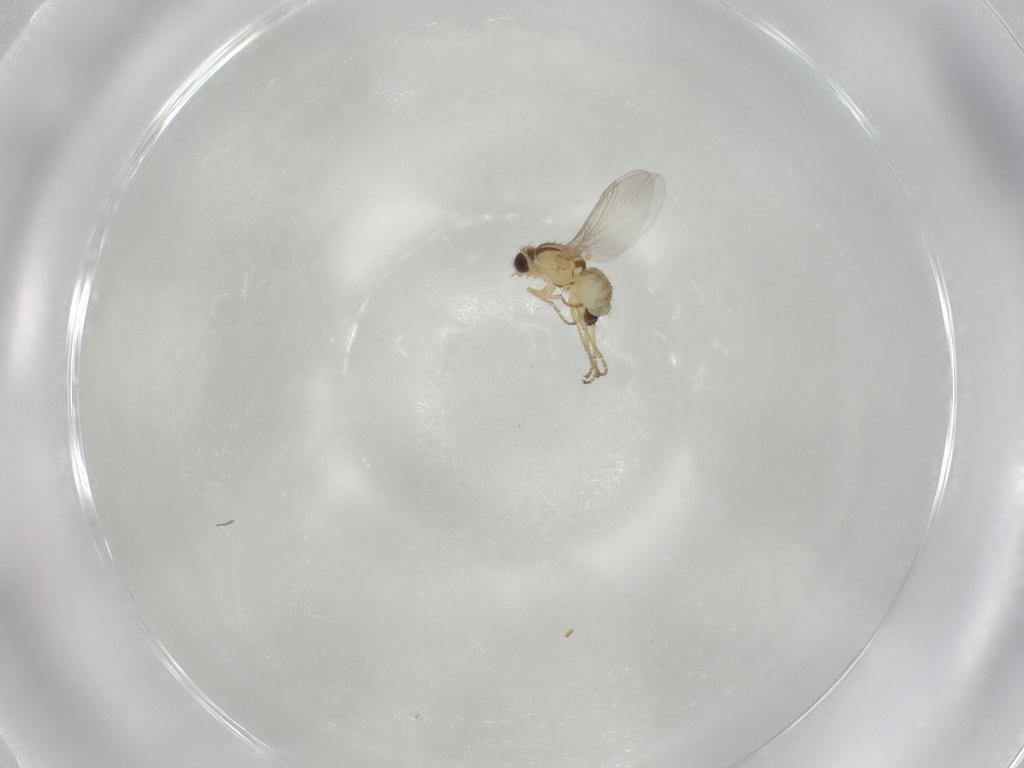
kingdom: Animalia
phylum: Arthropoda
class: Insecta
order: Diptera
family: Agromyzidae
